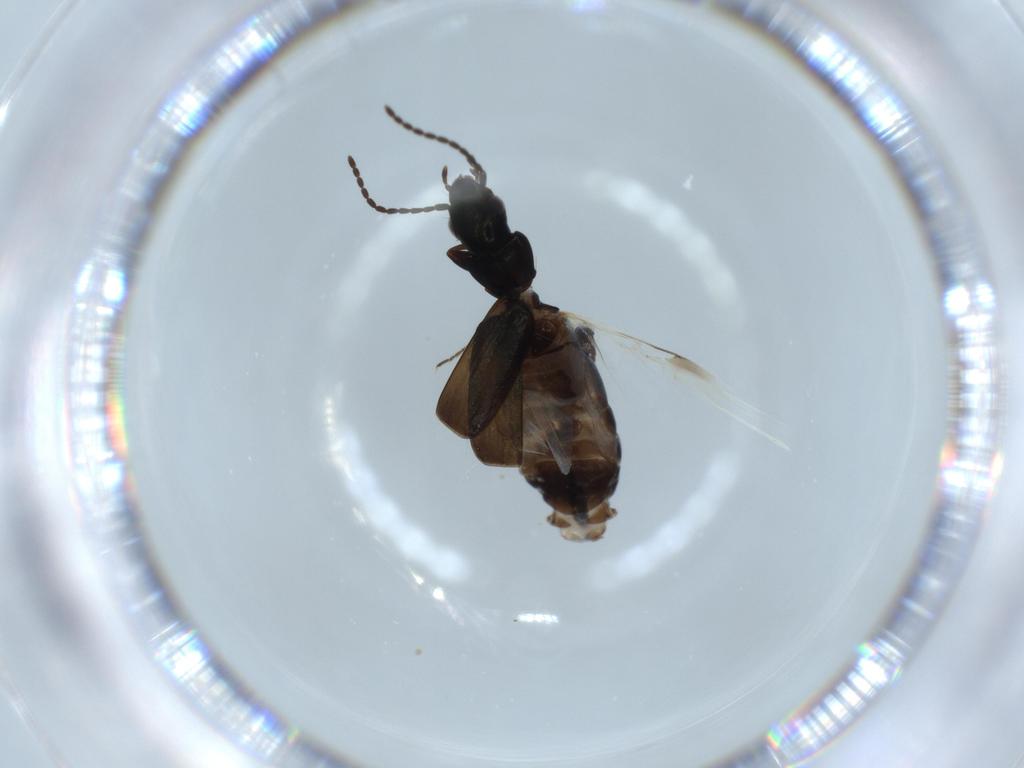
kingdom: Animalia
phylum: Arthropoda
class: Insecta
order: Coleoptera
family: Carabidae
